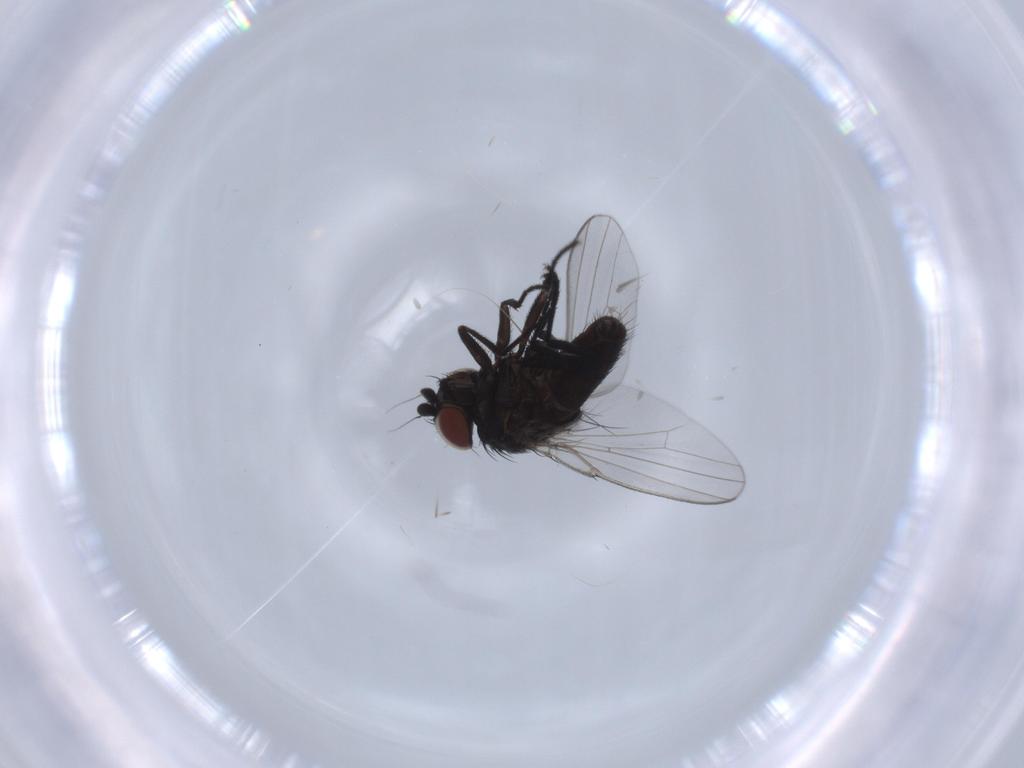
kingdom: Animalia
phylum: Arthropoda
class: Insecta
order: Diptera
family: Milichiidae
